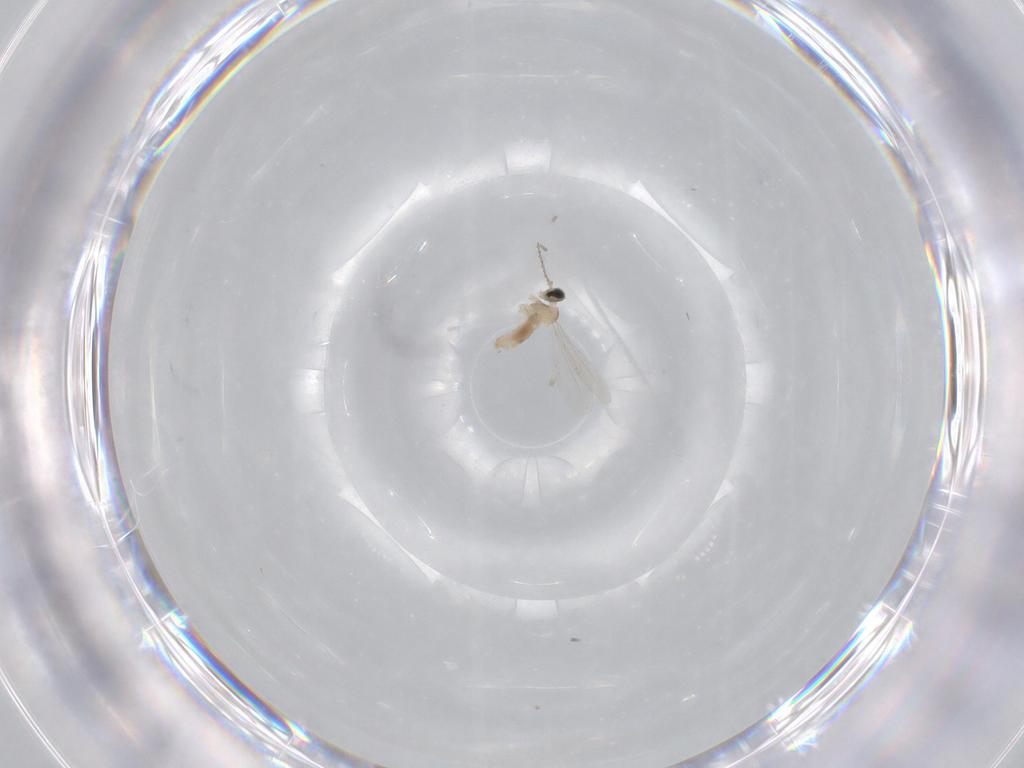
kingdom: Animalia
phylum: Arthropoda
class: Insecta
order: Diptera
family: Cecidomyiidae
